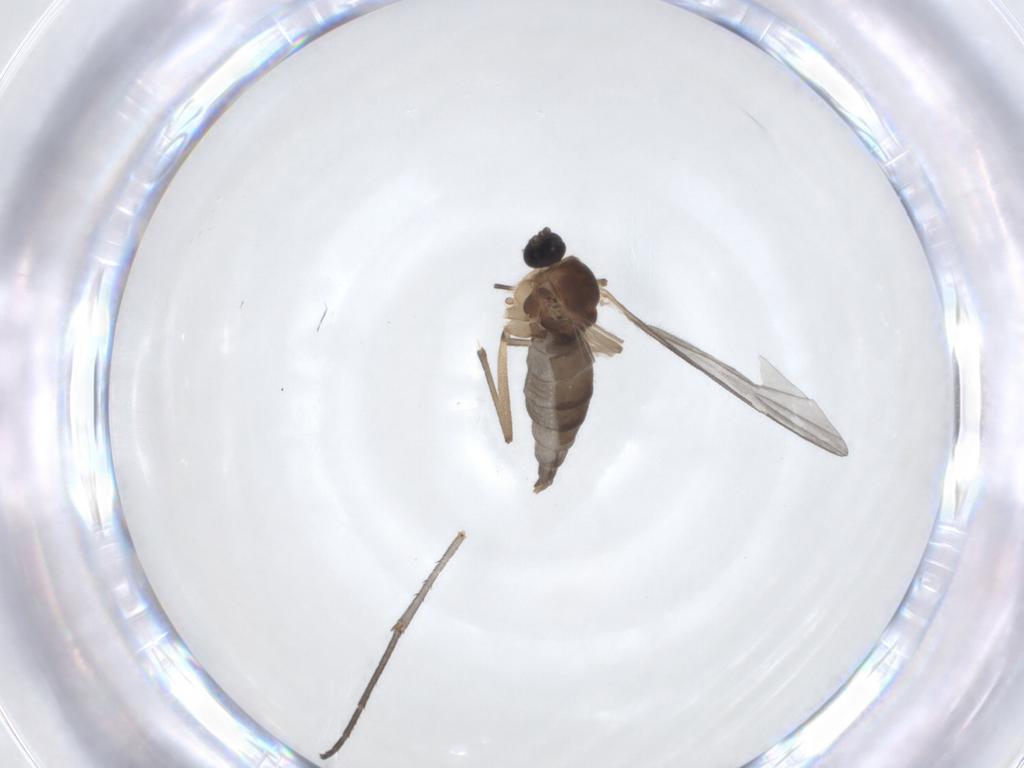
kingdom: Animalia
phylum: Arthropoda
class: Insecta
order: Diptera
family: Sciaridae
